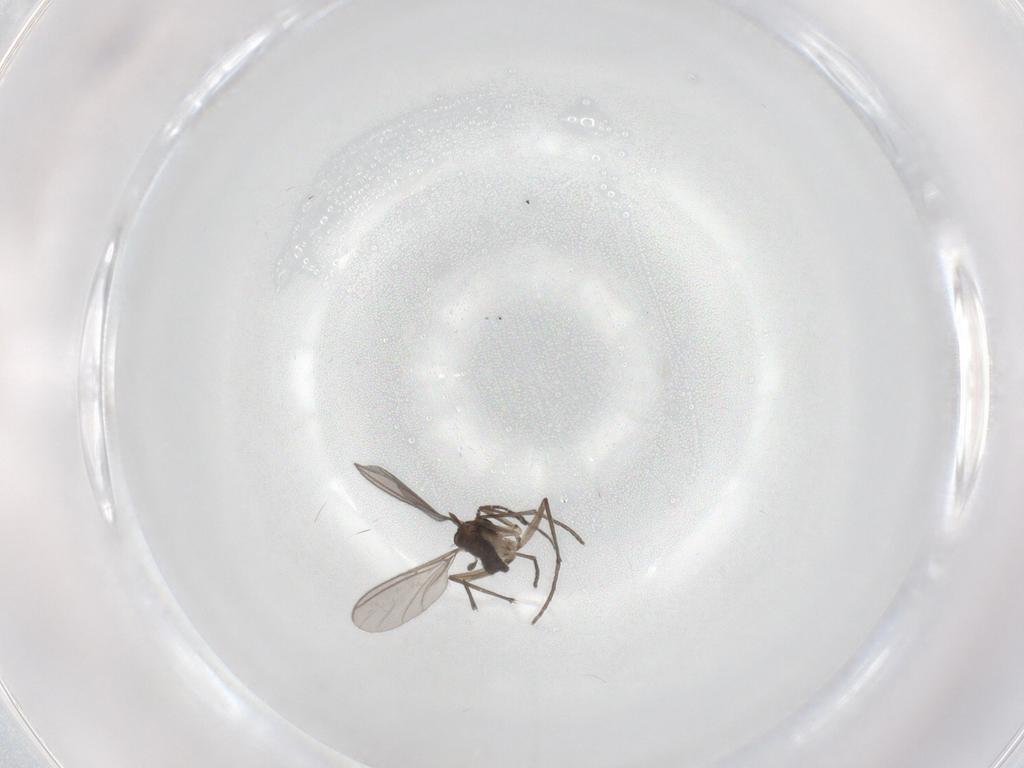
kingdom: Animalia
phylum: Arthropoda
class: Insecta
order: Diptera
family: Sciaridae
